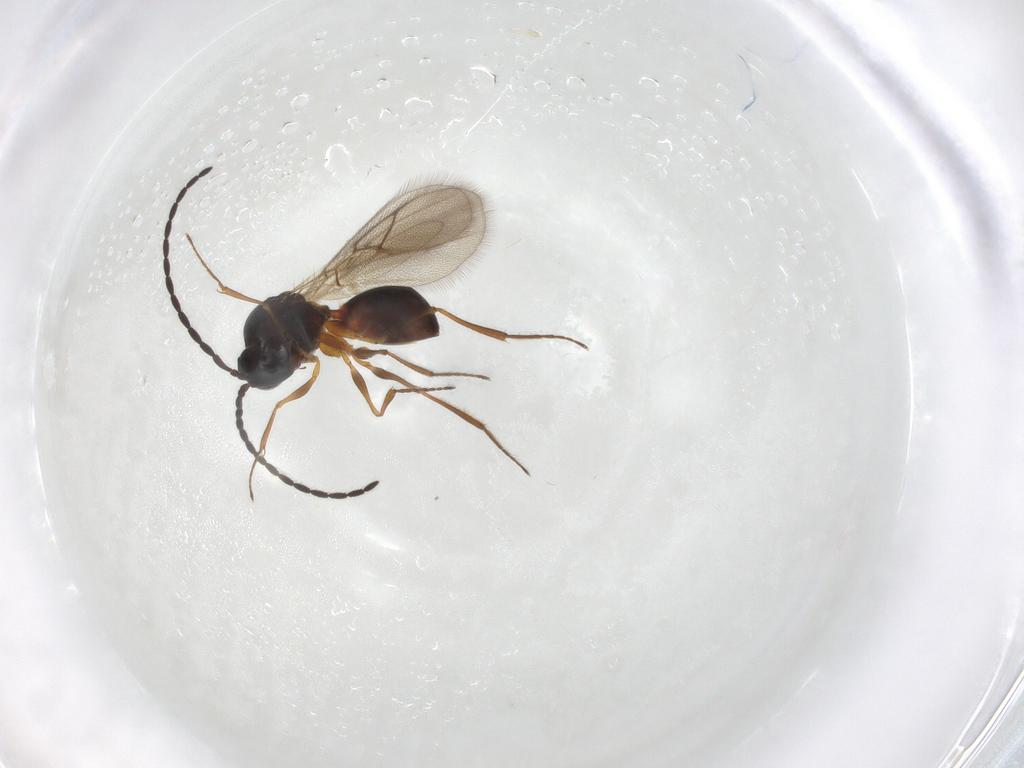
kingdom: Animalia
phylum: Arthropoda
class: Insecta
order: Hymenoptera
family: Figitidae
